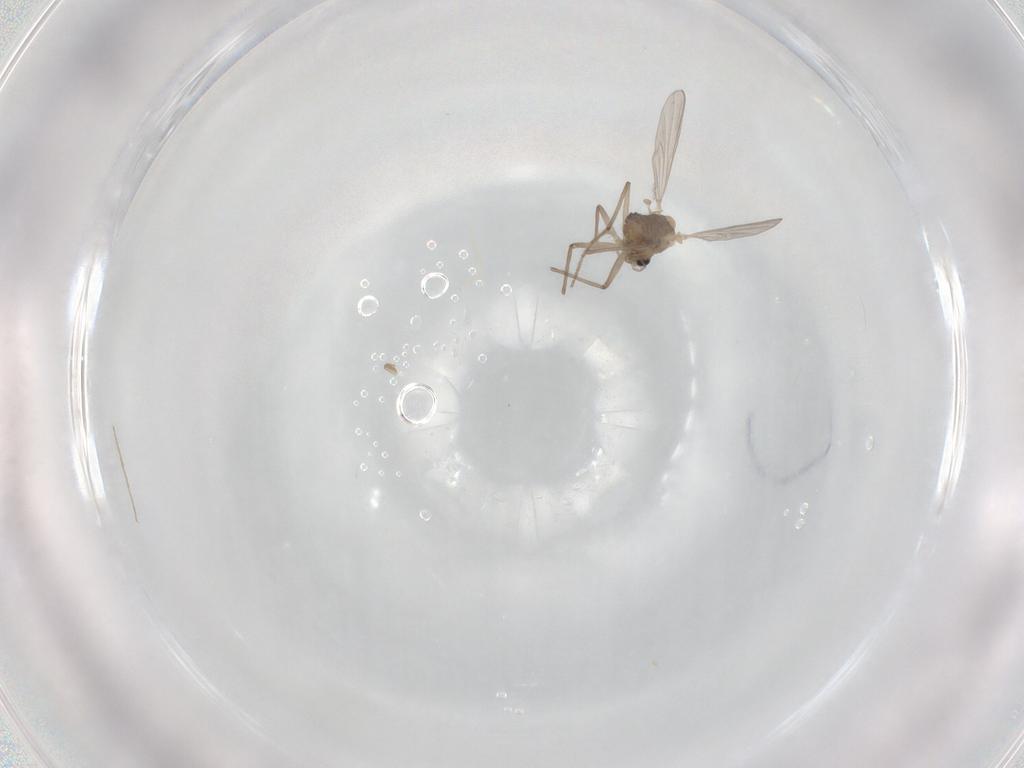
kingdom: Animalia
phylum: Arthropoda
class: Insecta
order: Diptera
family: Chironomidae
